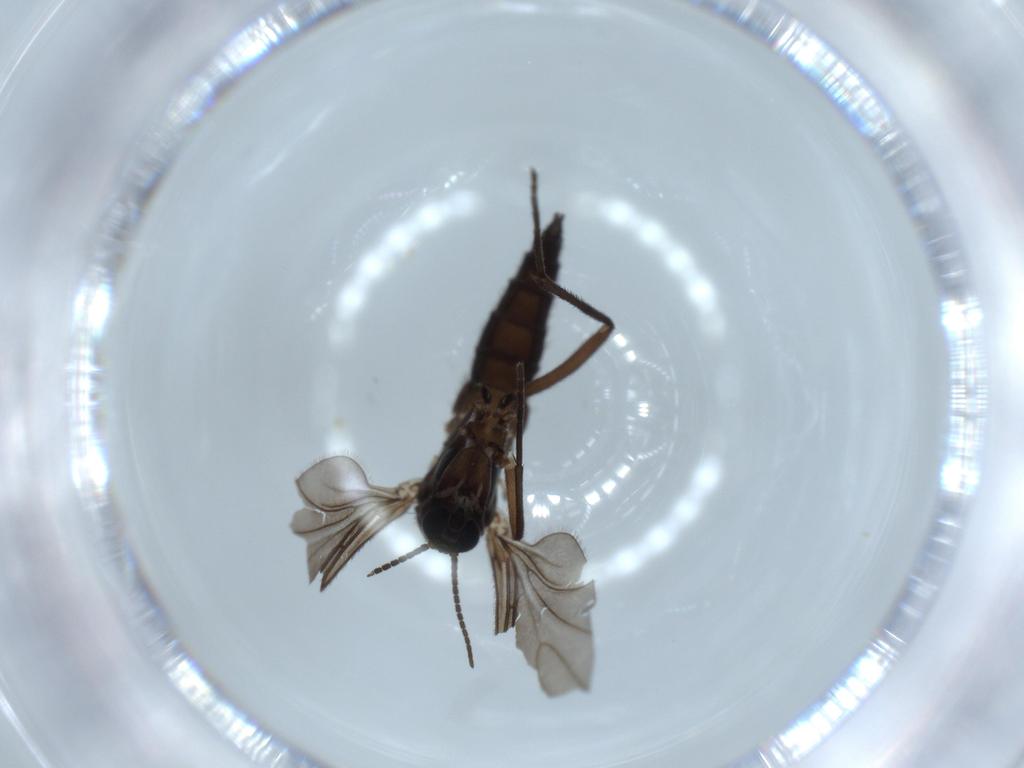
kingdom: Animalia
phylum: Arthropoda
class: Insecta
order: Diptera
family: Sciaridae
